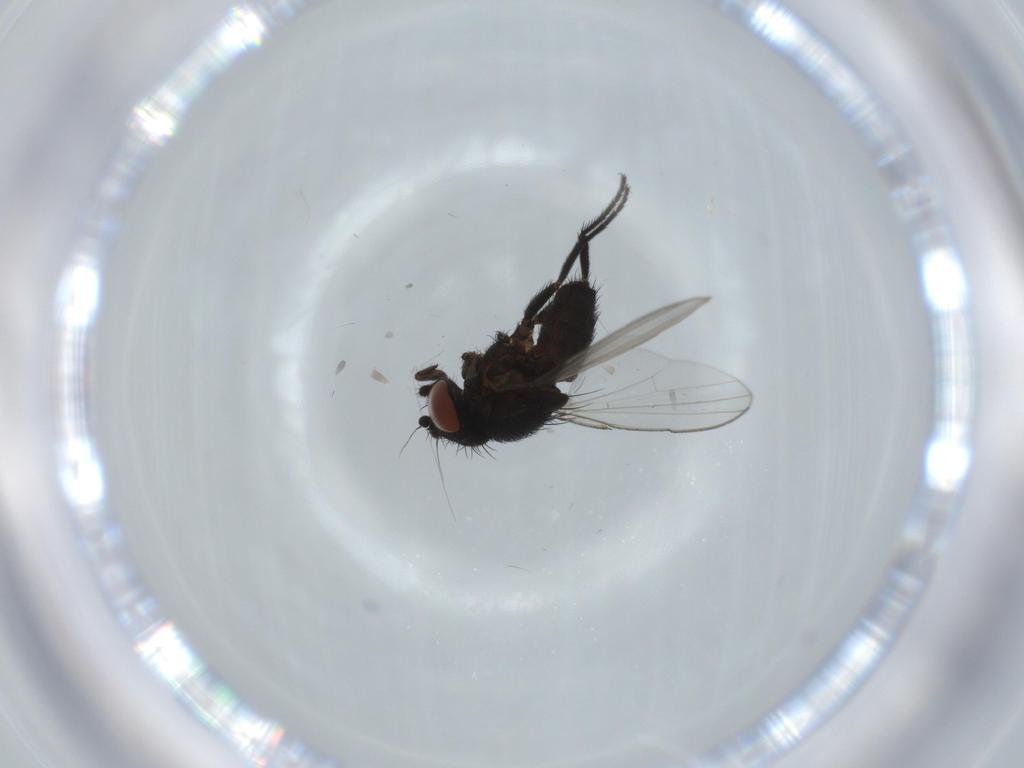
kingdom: Animalia
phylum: Arthropoda
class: Insecta
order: Diptera
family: Milichiidae
